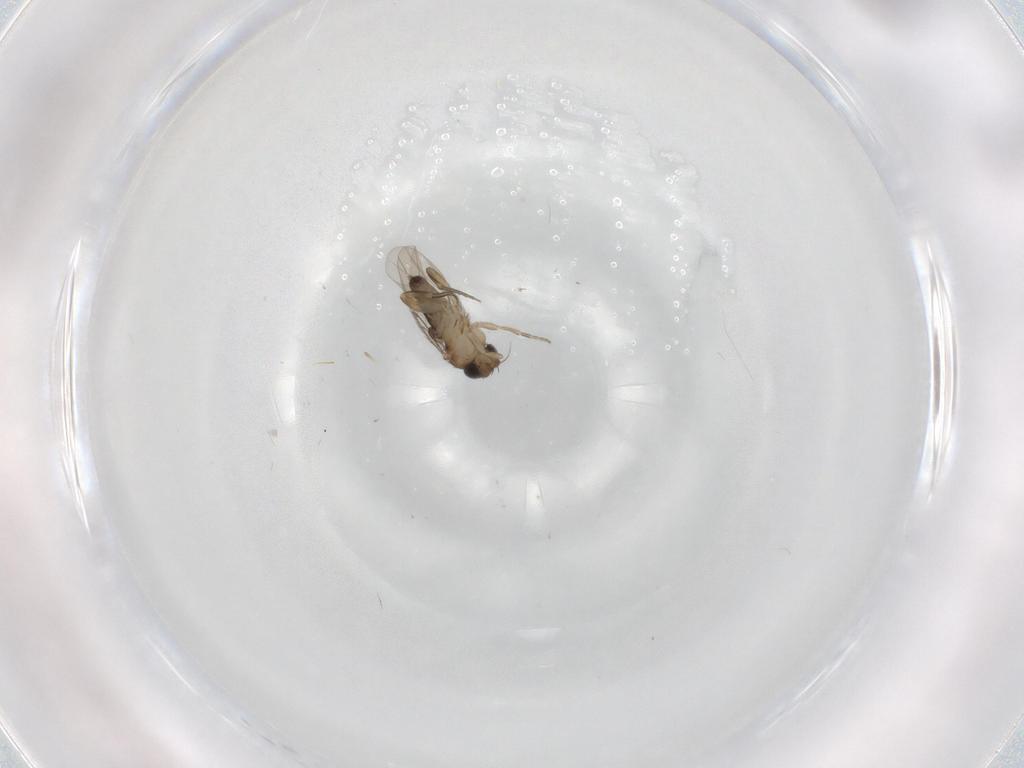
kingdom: Animalia
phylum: Arthropoda
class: Insecta
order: Diptera
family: Phoridae
